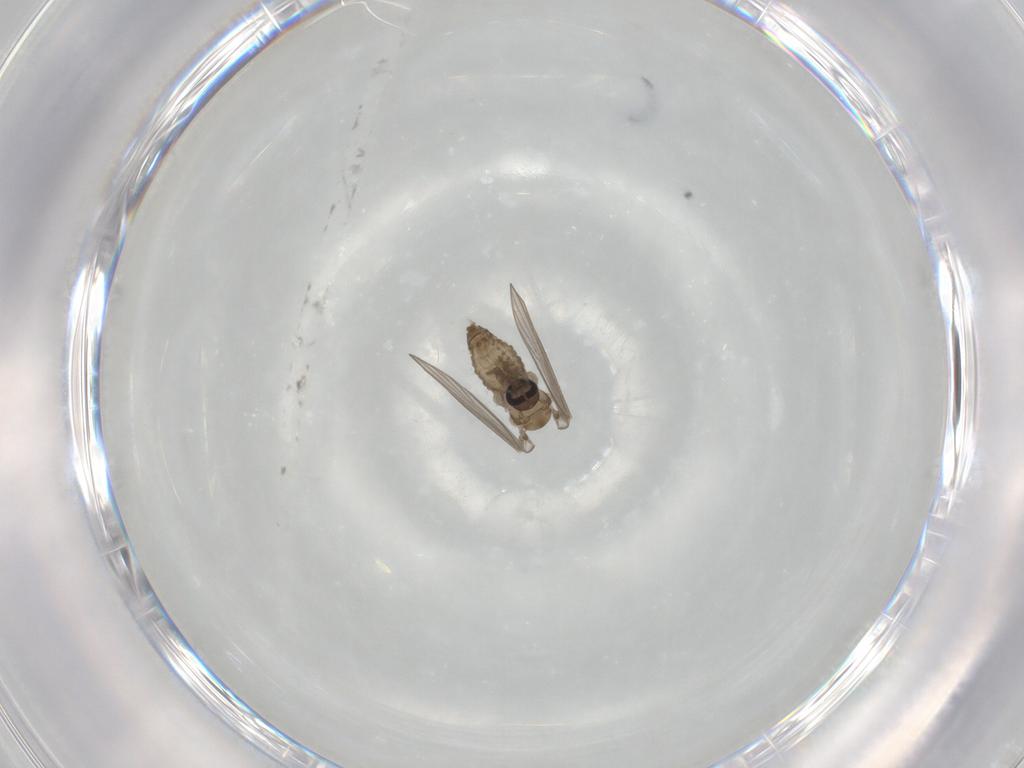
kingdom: Animalia
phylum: Arthropoda
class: Insecta
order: Diptera
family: Psychodidae
